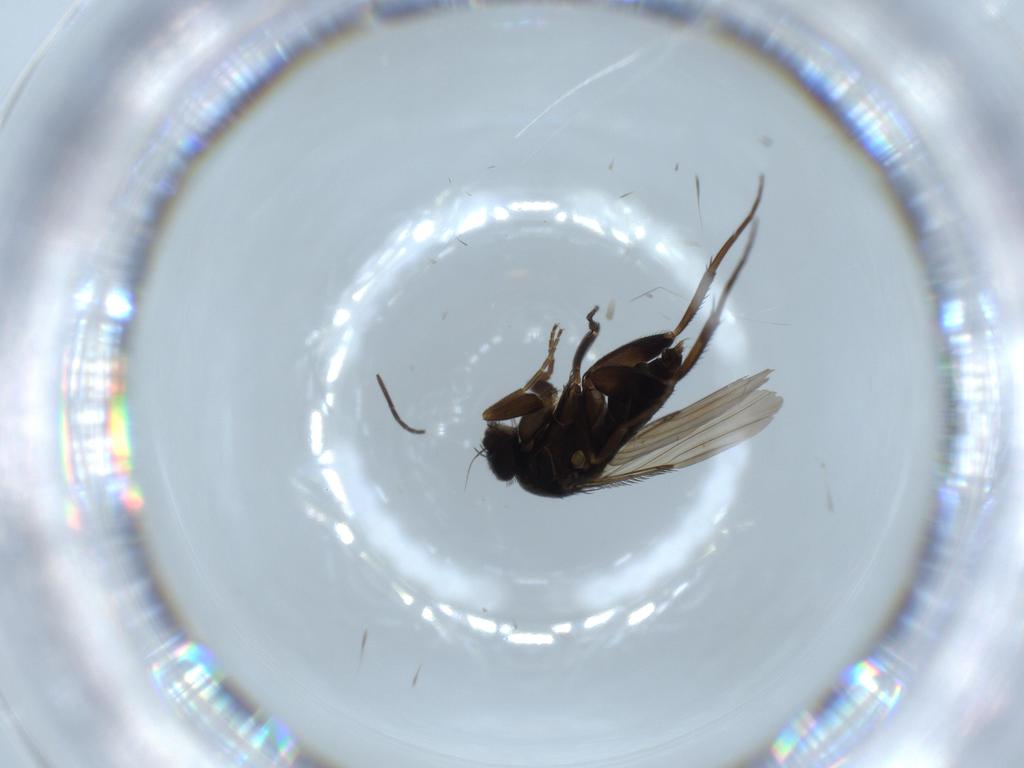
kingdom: Animalia
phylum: Arthropoda
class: Insecta
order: Diptera
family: Phoridae
